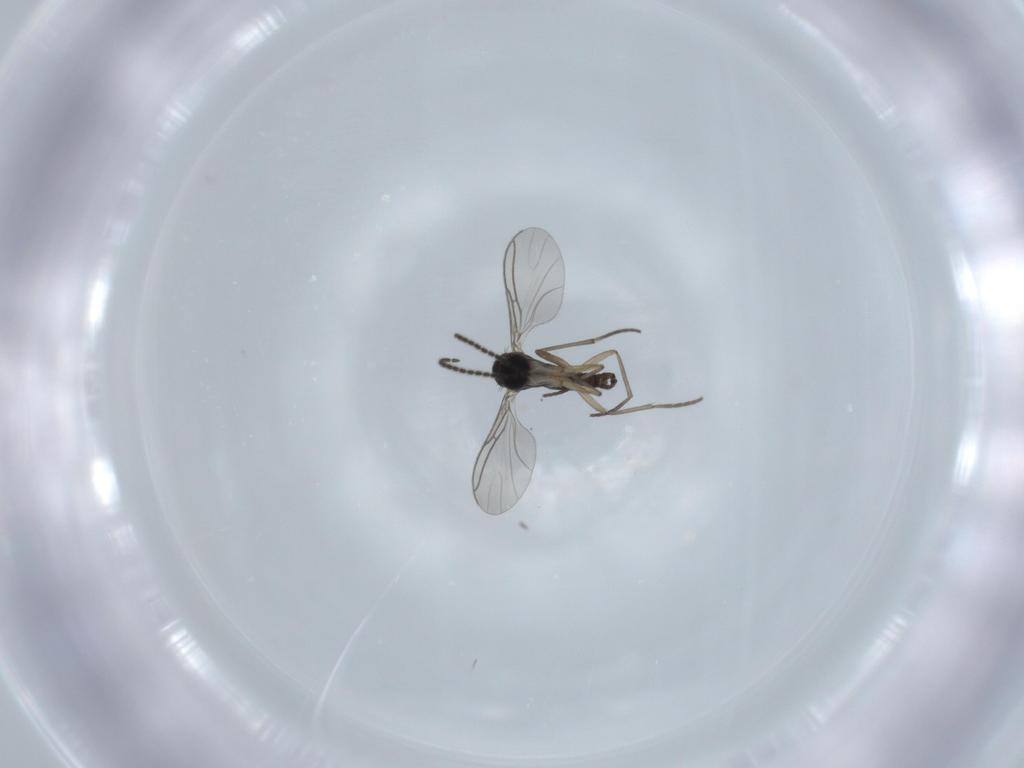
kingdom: Animalia
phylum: Arthropoda
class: Insecta
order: Diptera
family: Sciaridae
